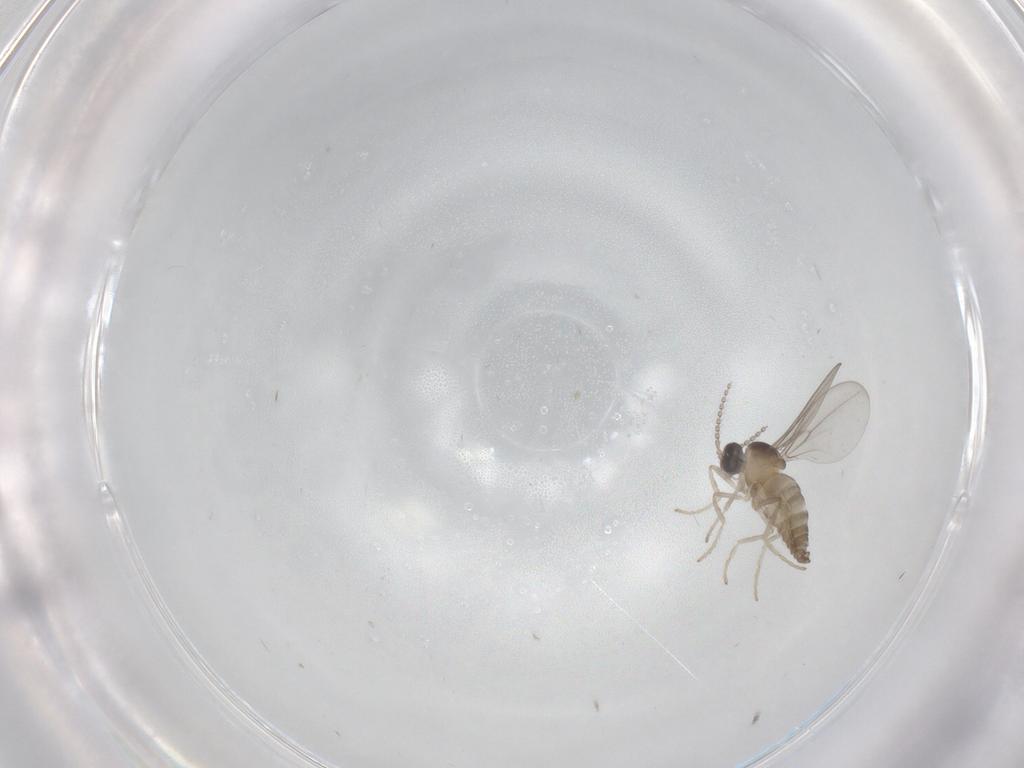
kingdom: Animalia
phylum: Arthropoda
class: Insecta
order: Diptera
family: Cecidomyiidae
